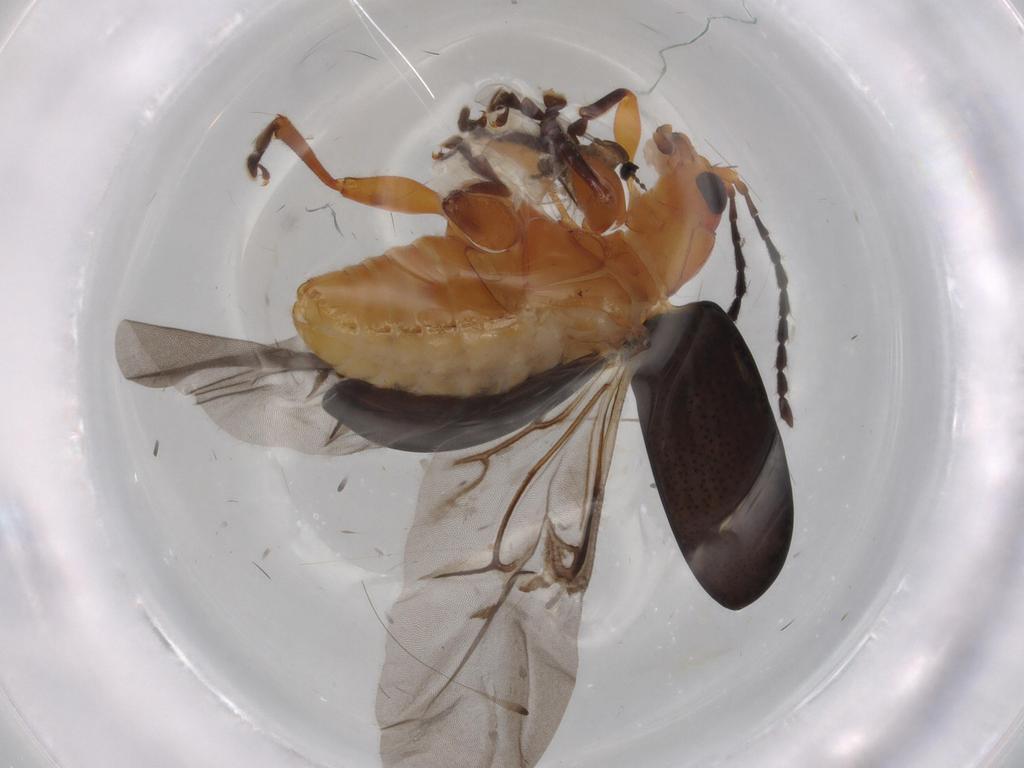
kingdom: Animalia
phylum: Arthropoda
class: Insecta
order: Coleoptera
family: Chrysomelidae
